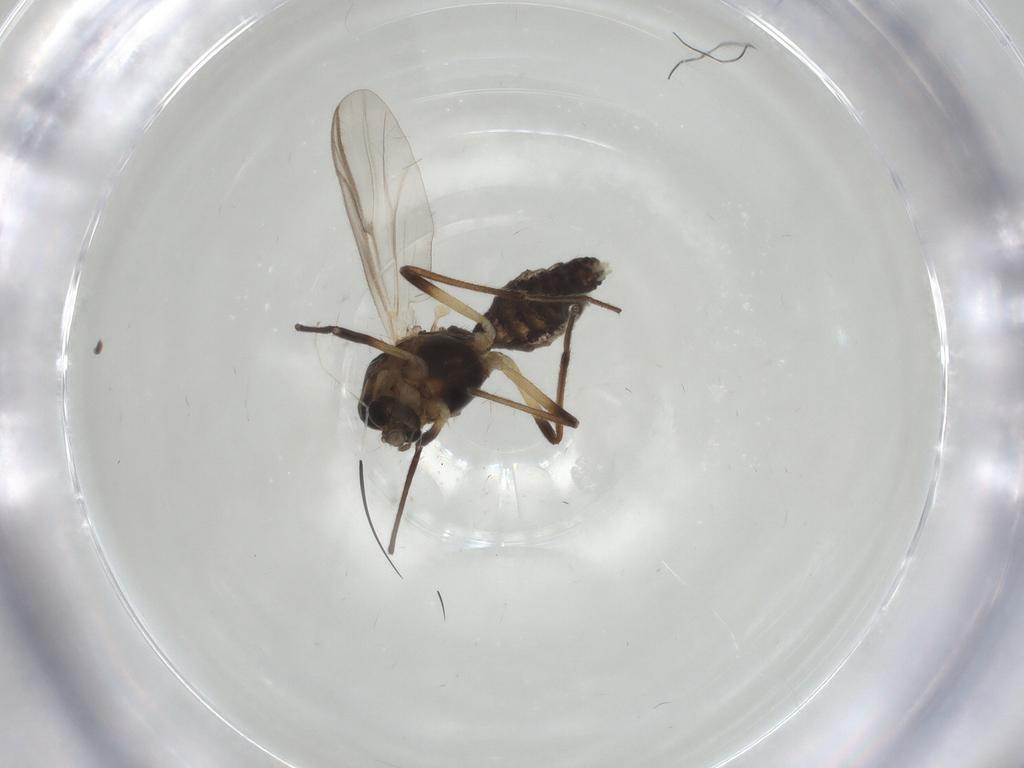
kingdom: Animalia
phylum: Arthropoda
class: Insecta
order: Diptera
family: Chironomidae
